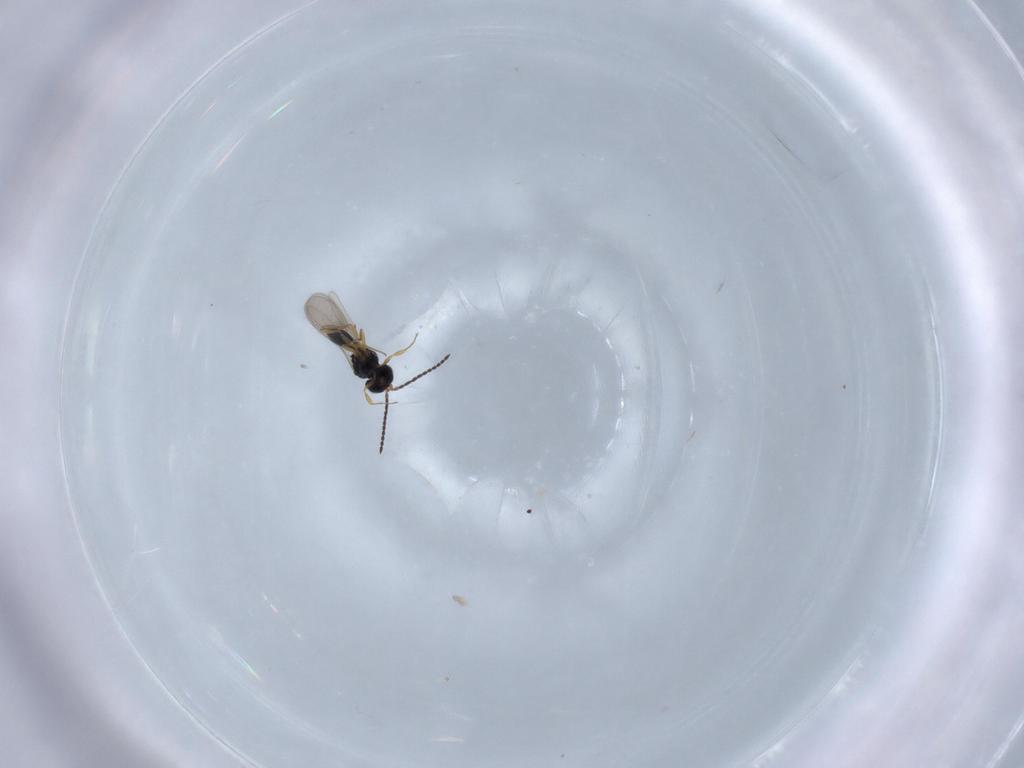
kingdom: Animalia
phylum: Arthropoda
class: Insecta
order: Hymenoptera
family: Scelionidae
